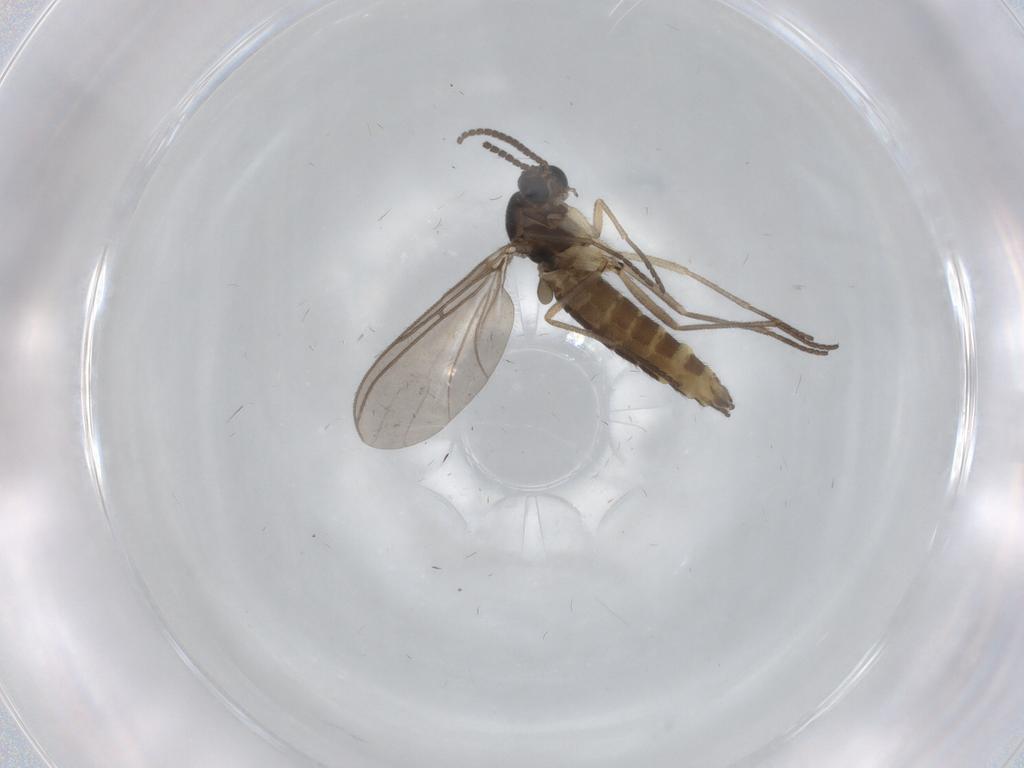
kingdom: Animalia
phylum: Arthropoda
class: Insecta
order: Diptera
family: Sciaridae
